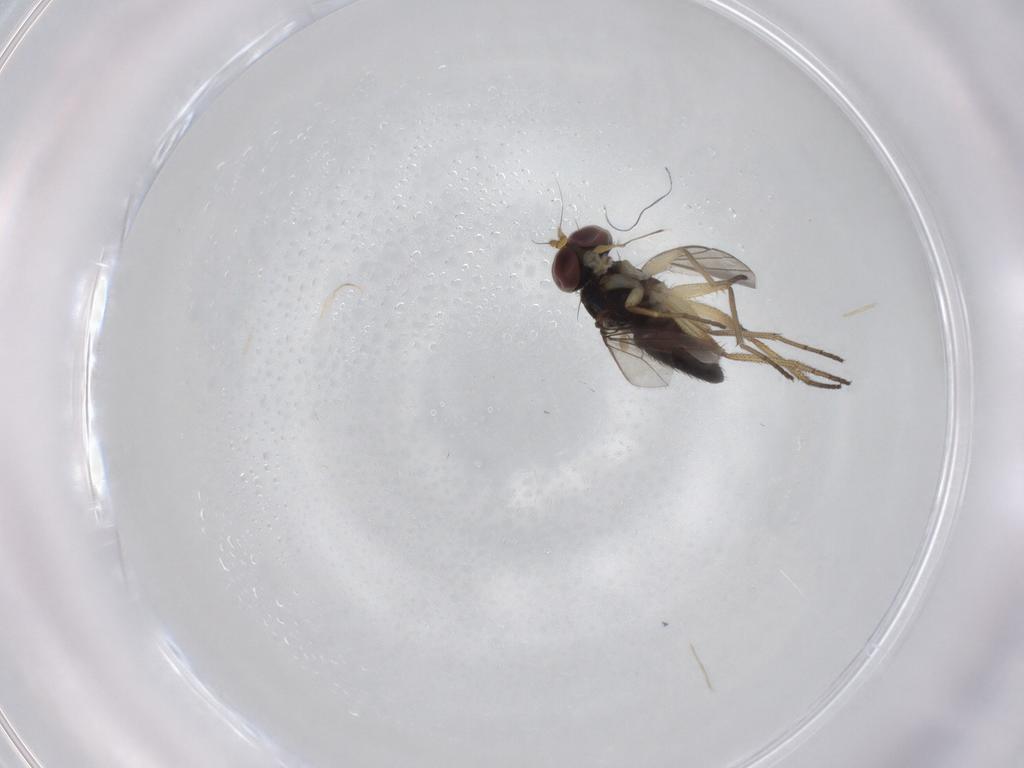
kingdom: Animalia
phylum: Arthropoda
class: Insecta
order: Diptera
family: Dolichopodidae
